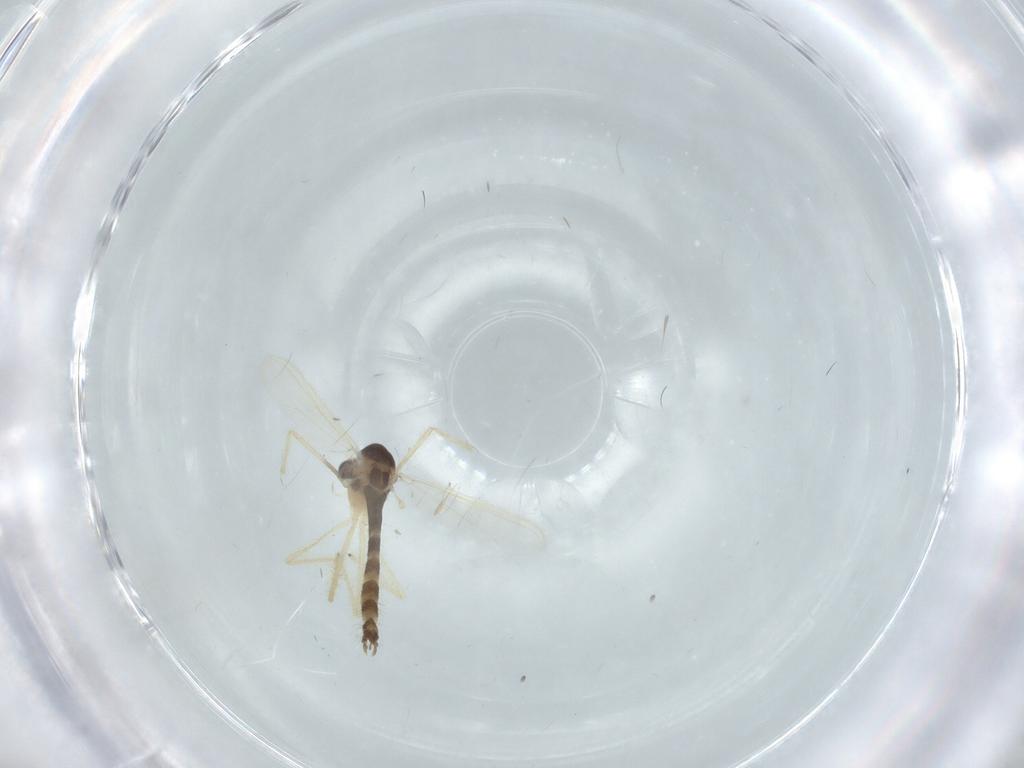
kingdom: Animalia
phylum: Arthropoda
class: Insecta
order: Diptera
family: Chironomidae
